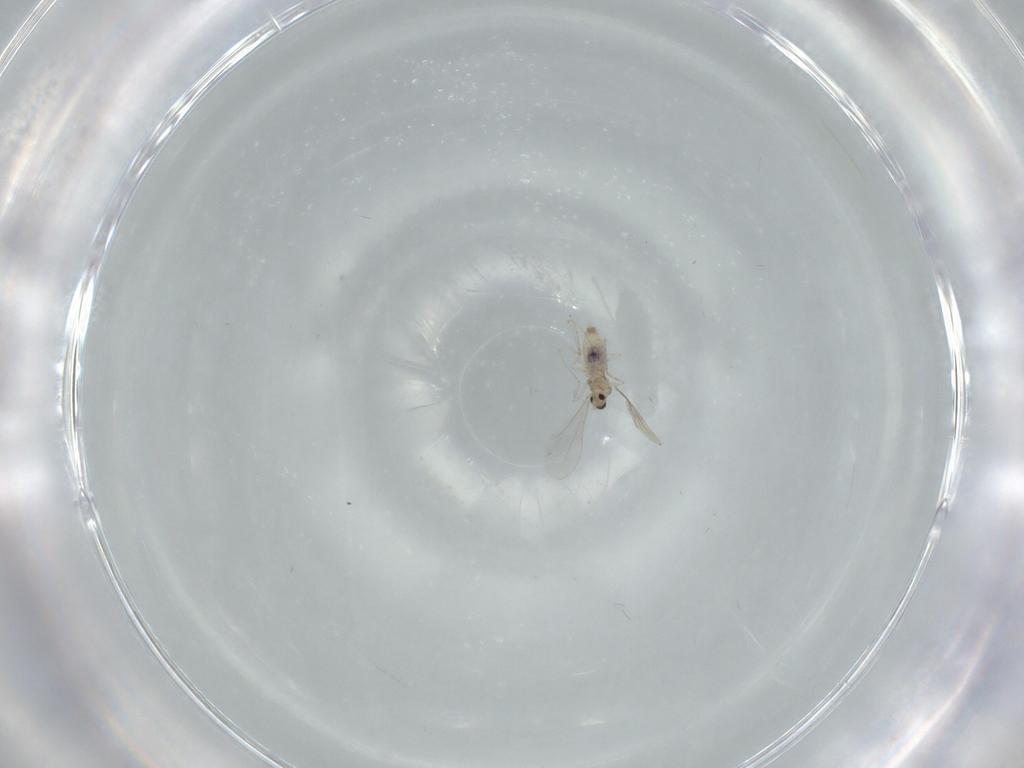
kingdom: Animalia
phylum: Arthropoda
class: Insecta
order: Diptera
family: Cecidomyiidae
